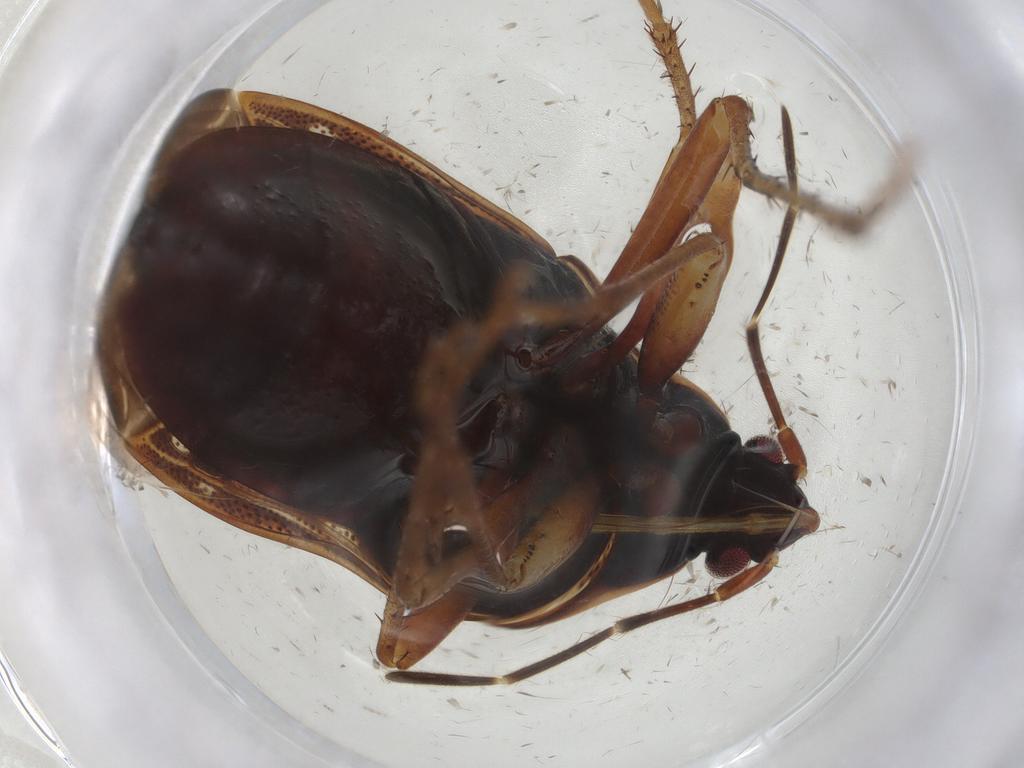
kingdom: Animalia
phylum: Arthropoda
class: Insecta
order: Hemiptera
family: Rhyparochromidae
